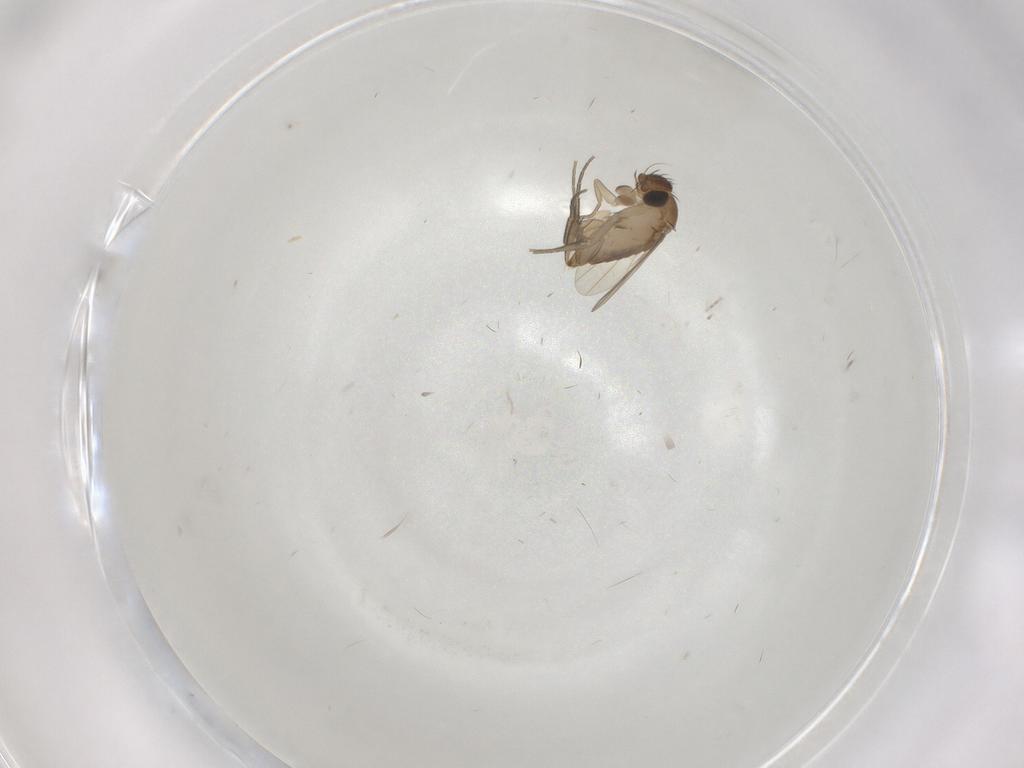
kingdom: Animalia
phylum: Arthropoda
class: Insecta
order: Diptera
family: Phoridae
